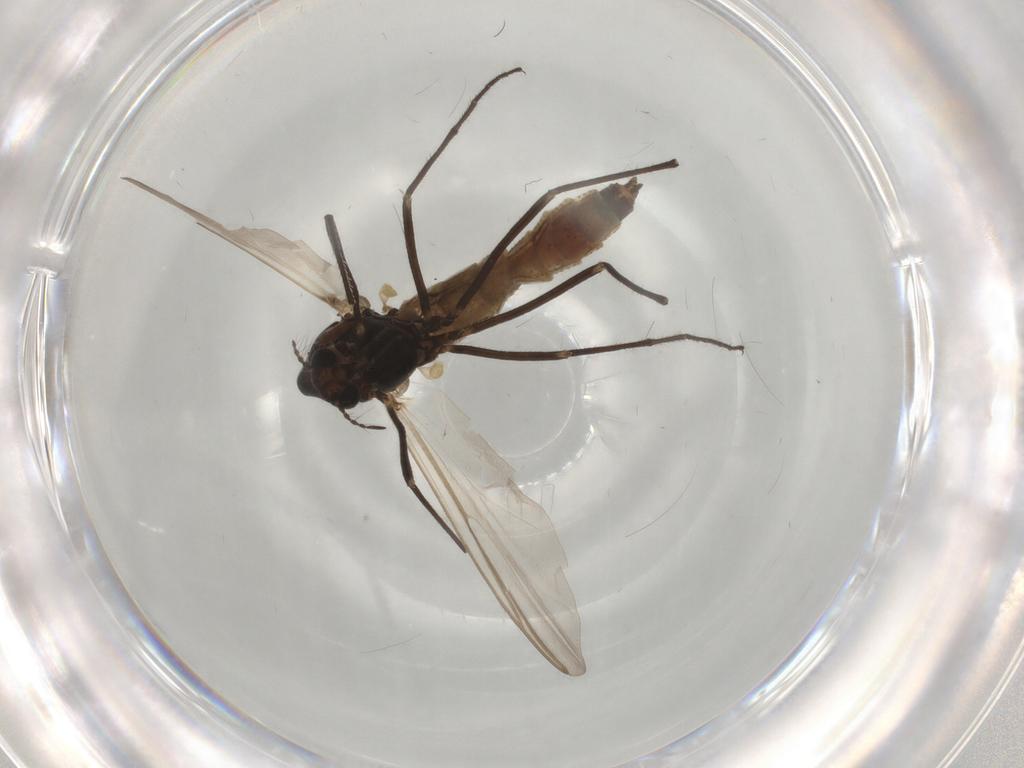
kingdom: Animalia
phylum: Arthropoda
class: Insecta
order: Diptera
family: Chironomidae
